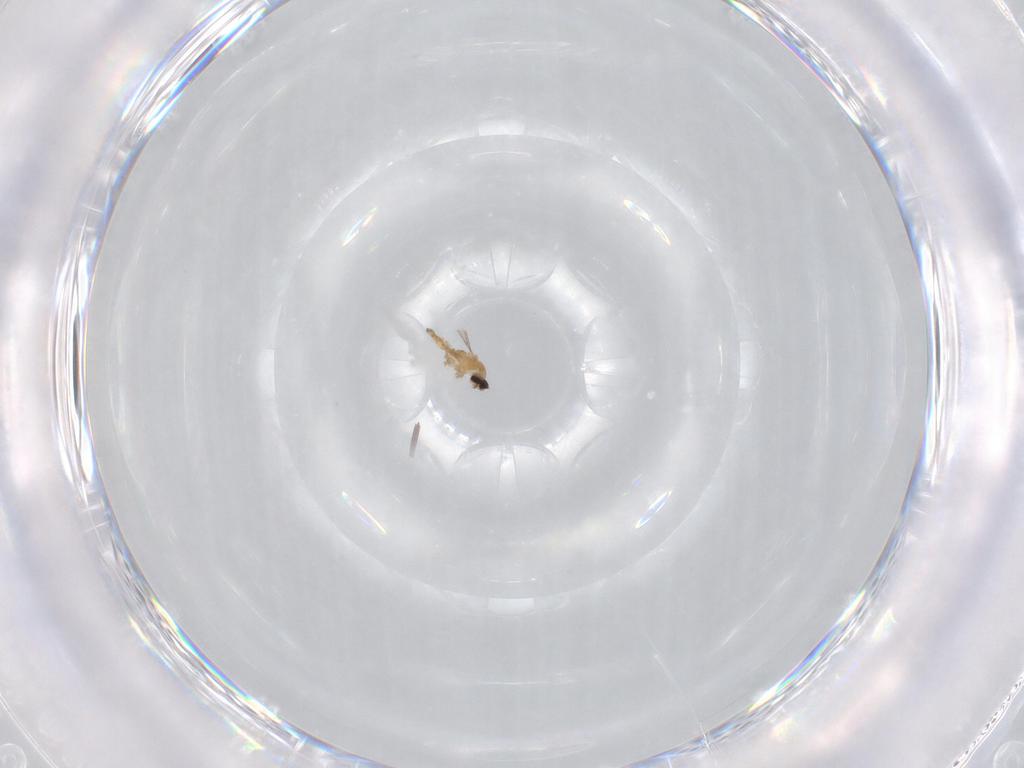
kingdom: Animalia
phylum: Arthropoda
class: Insecta
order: Diptera
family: Cecidomyiidae
